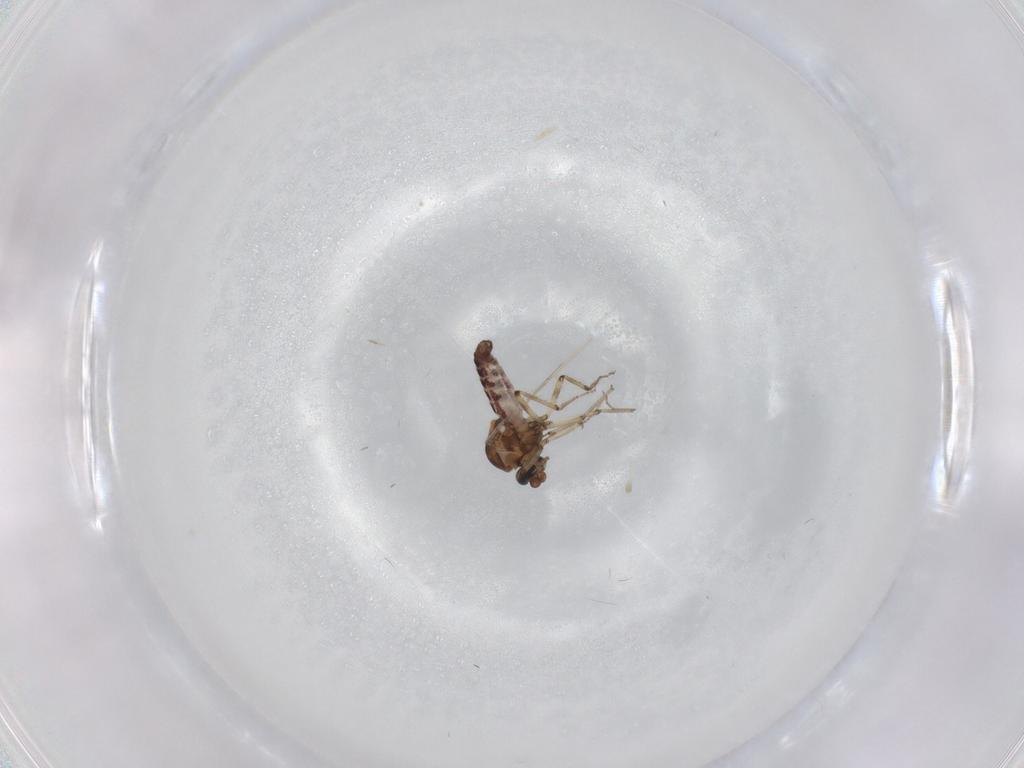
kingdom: Animalia
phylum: Arthropoda
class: Insecta
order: Diptera
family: Ceratopogonidae
